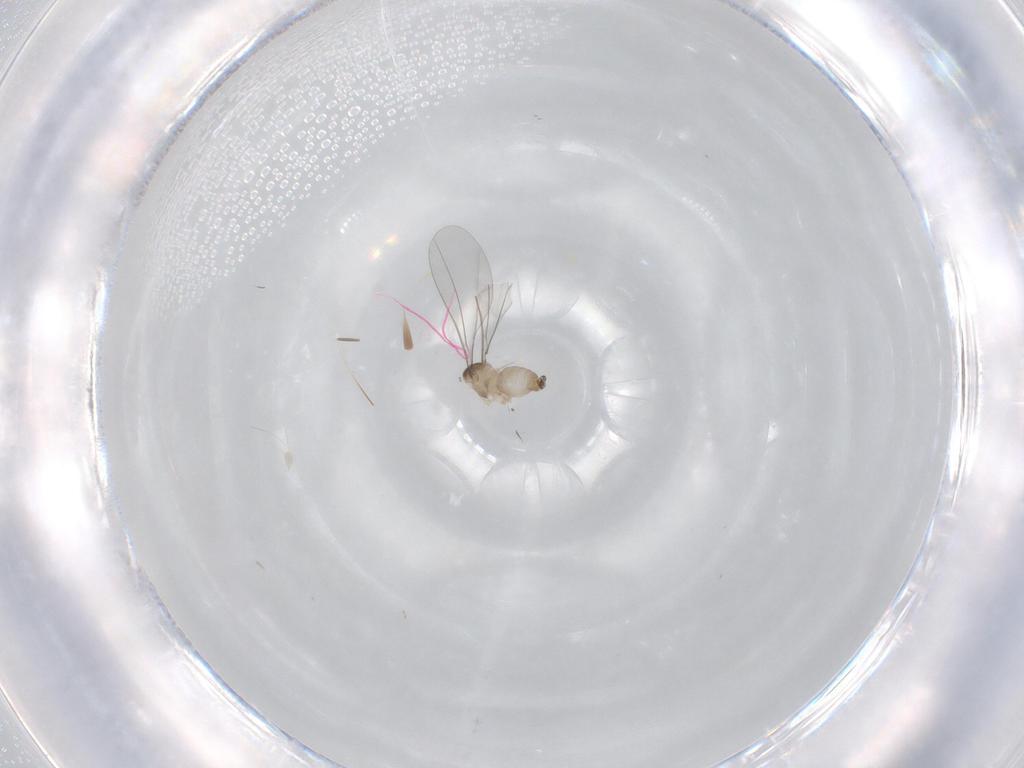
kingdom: Animalia
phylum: Arthropoda
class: Insecta
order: Diptera
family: Cecidomyiidae
